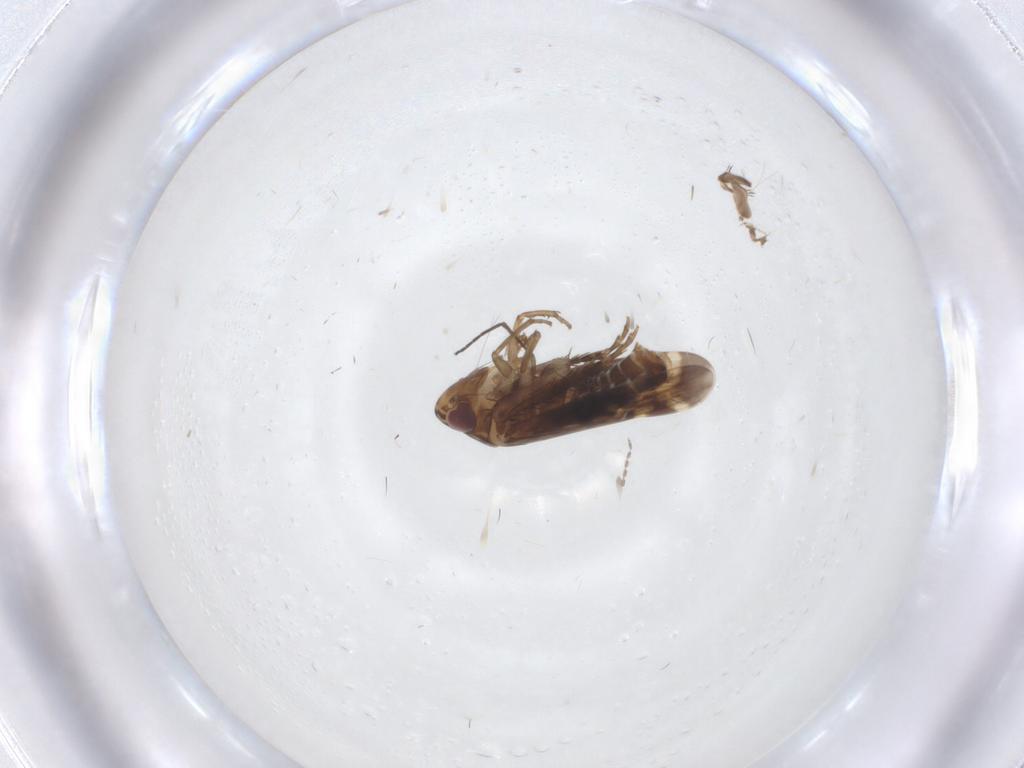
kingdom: Animalia
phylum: Arthropoda
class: Insecta
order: Hemiptera
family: Cicadellidae
